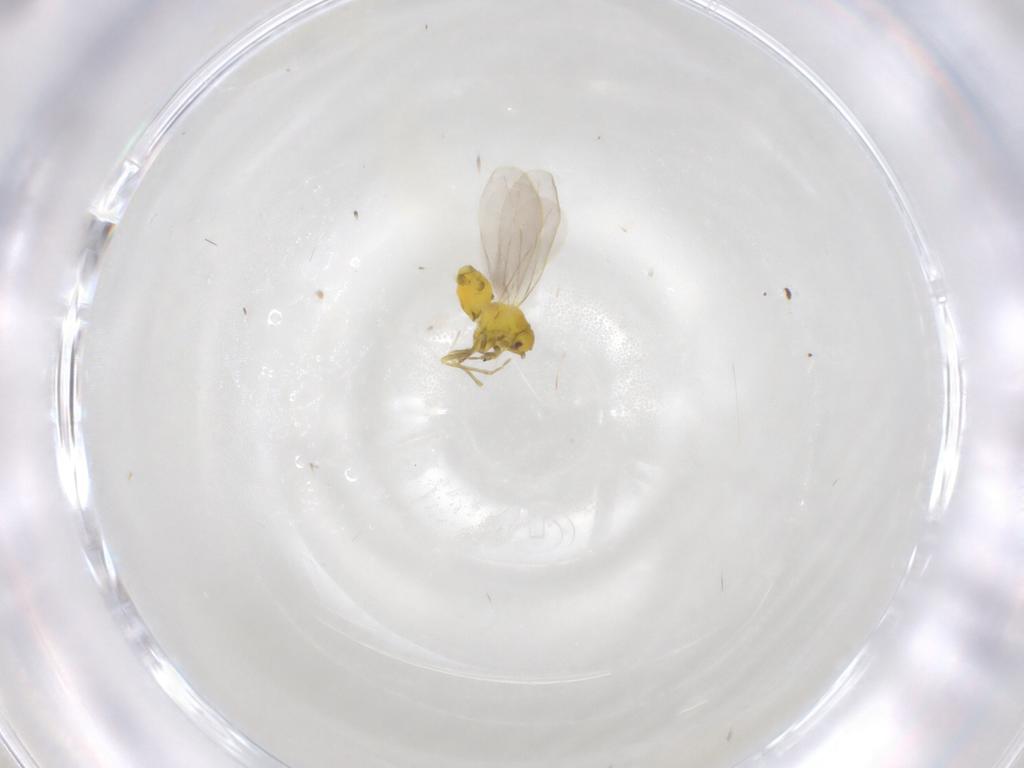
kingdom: Animalia
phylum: Arthropoda
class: Insecta
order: Hemiptera
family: Aleyrodidae
